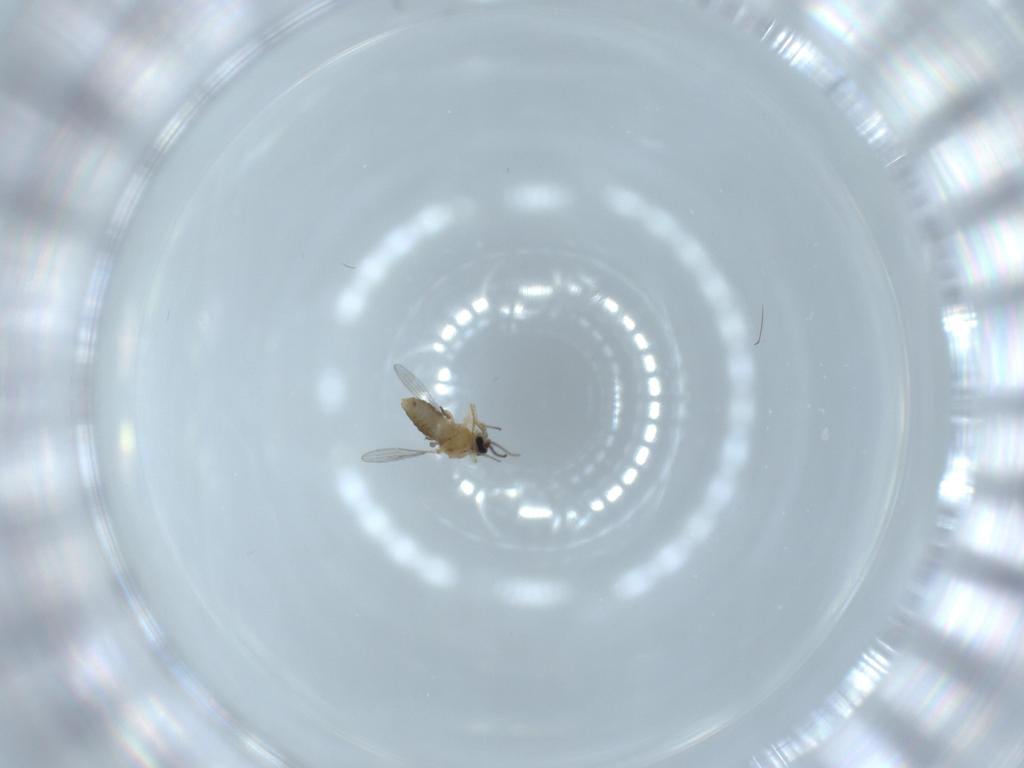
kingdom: Animalia
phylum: Arthropoda
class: Insecta
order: Diptera
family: Ceratopogonidae
